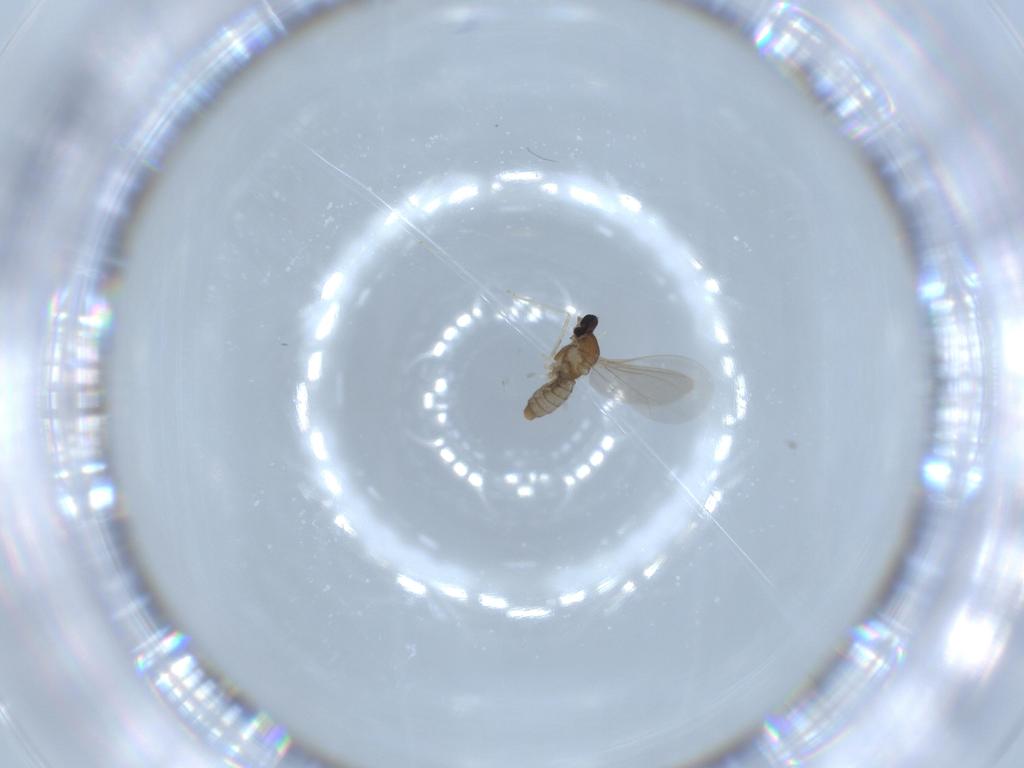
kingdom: Animalia
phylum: Arthropoda
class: Insecta
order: Diptera
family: Cecidomyiidae
